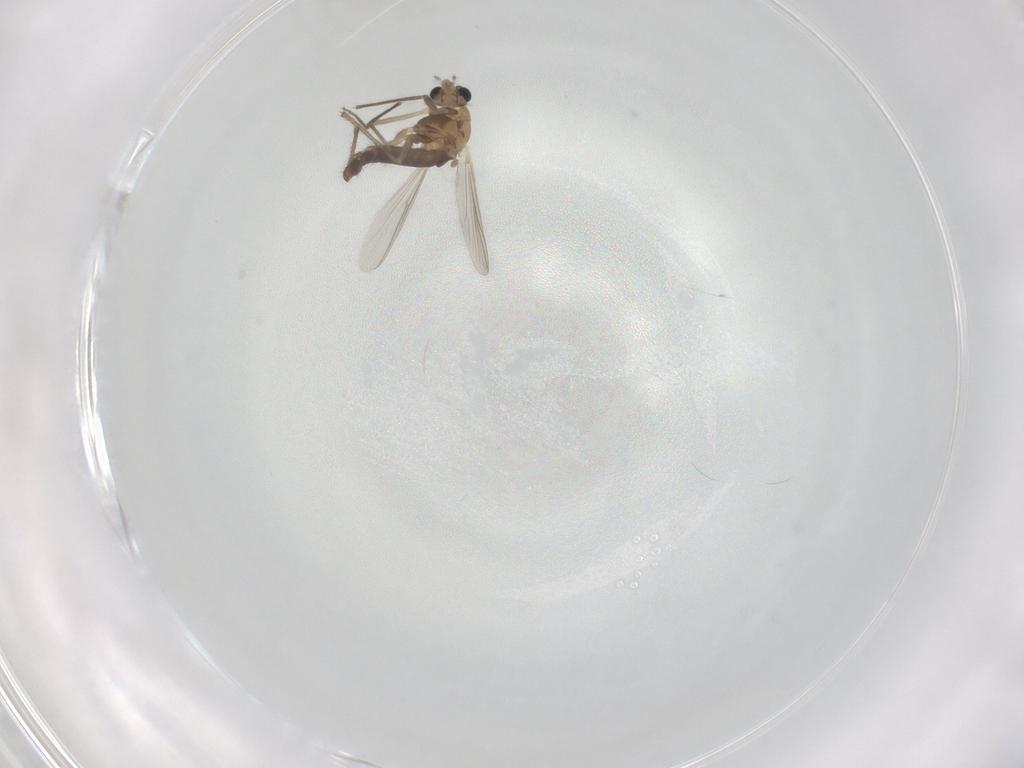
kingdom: Animalia
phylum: Arthropoda
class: Insecta
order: Diptera
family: Chironomidae
